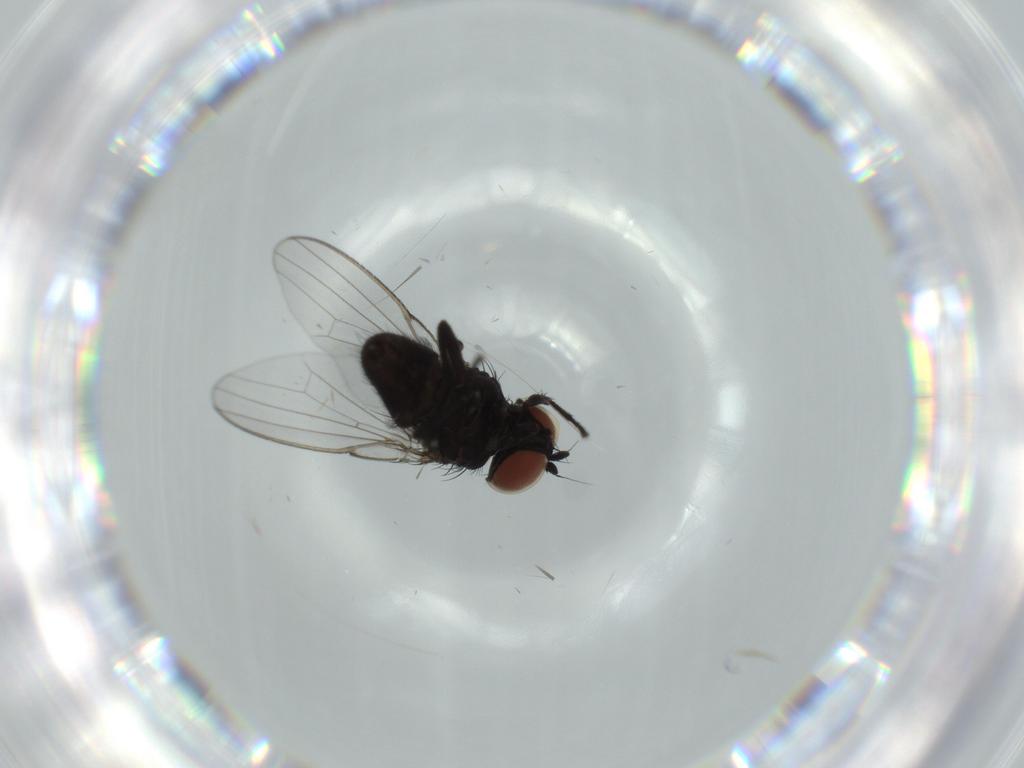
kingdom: Animalia
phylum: Arthropoda
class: Insecta
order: Diptera
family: Milichiidae
